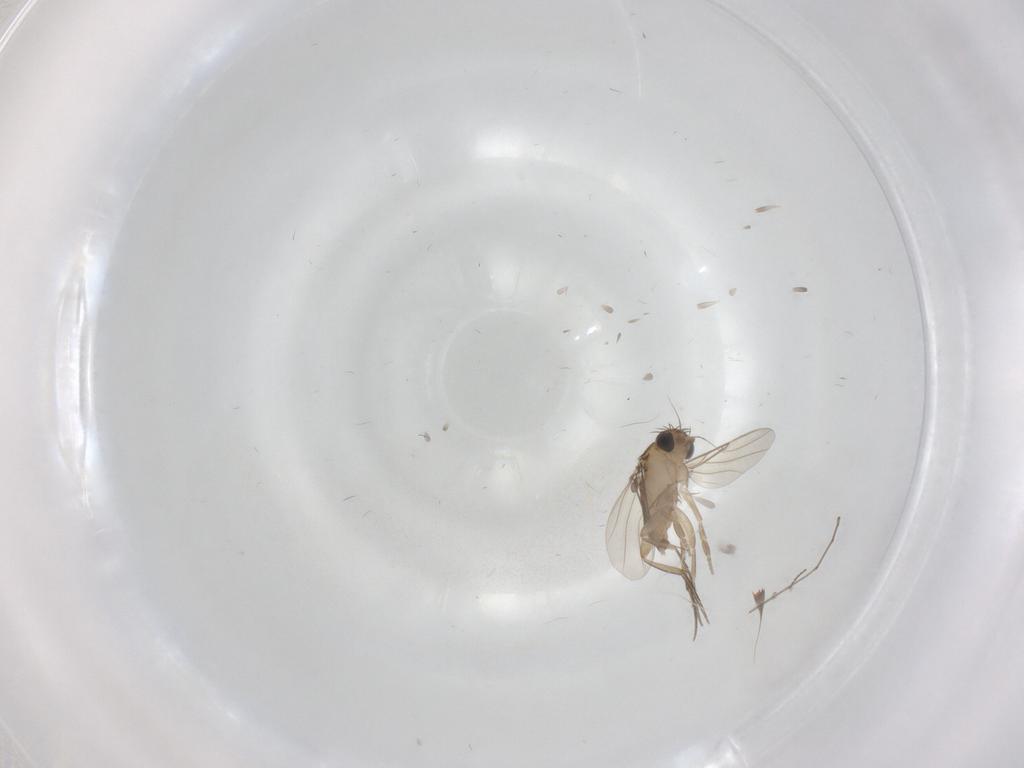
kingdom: Animalia
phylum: Arthropoda
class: Insecta
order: Diptera
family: Phoridae
